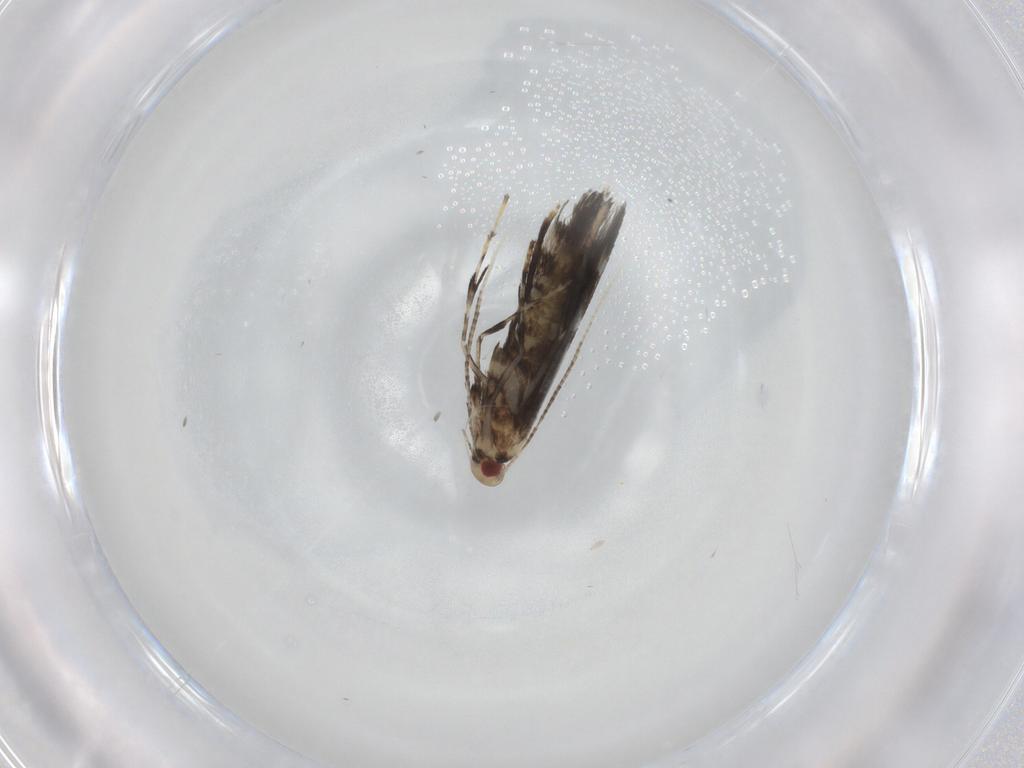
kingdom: Animalia
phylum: Arthropoda
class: Insecta
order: Lepidoptera
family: Gracillariidae
